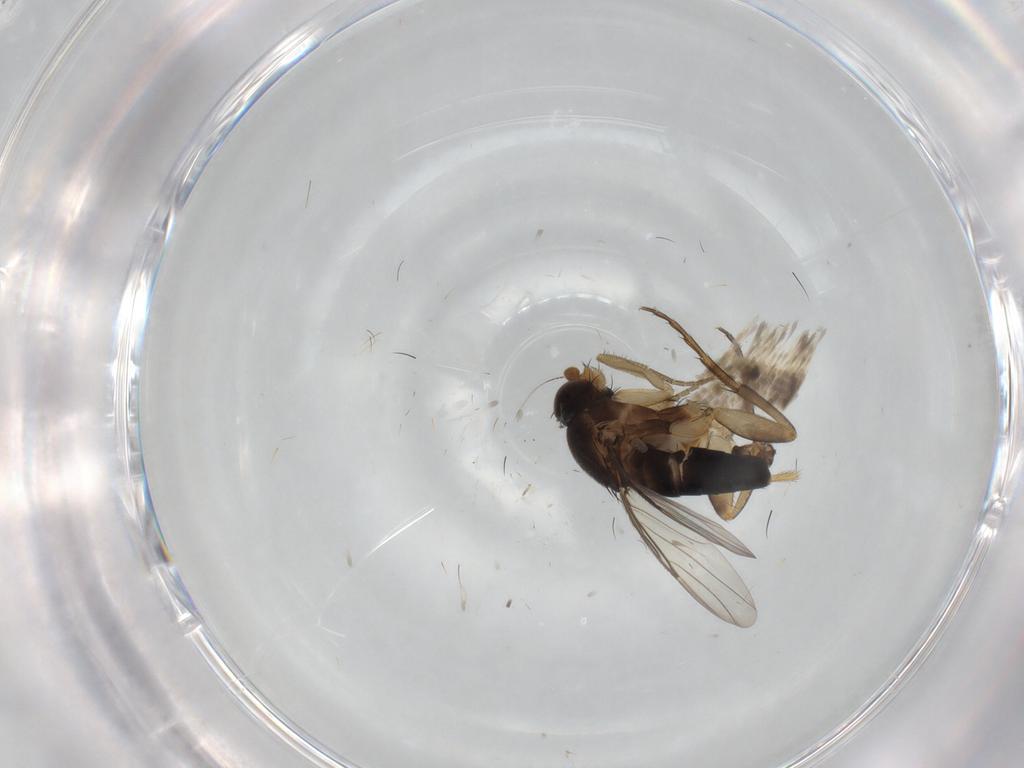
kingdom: Animalia
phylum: Arthropoda
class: Insecta
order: Diptera
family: Phoridae
